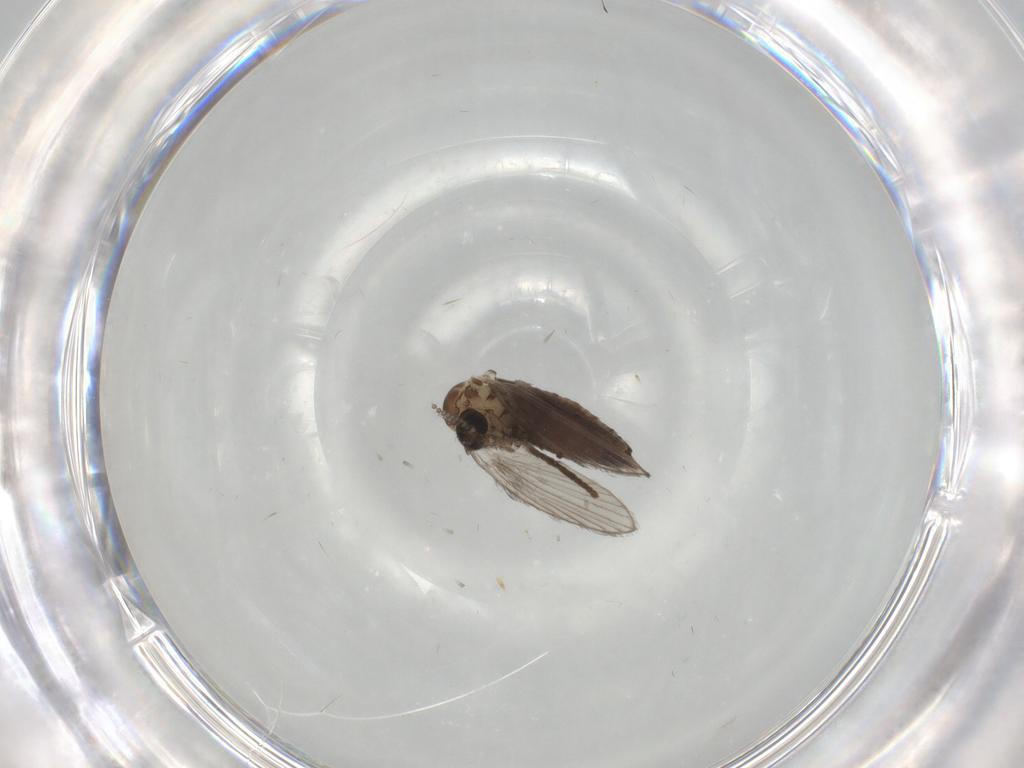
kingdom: Animalia
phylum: Arthropoda
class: Insecta
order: Diptera
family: Psychodidae
